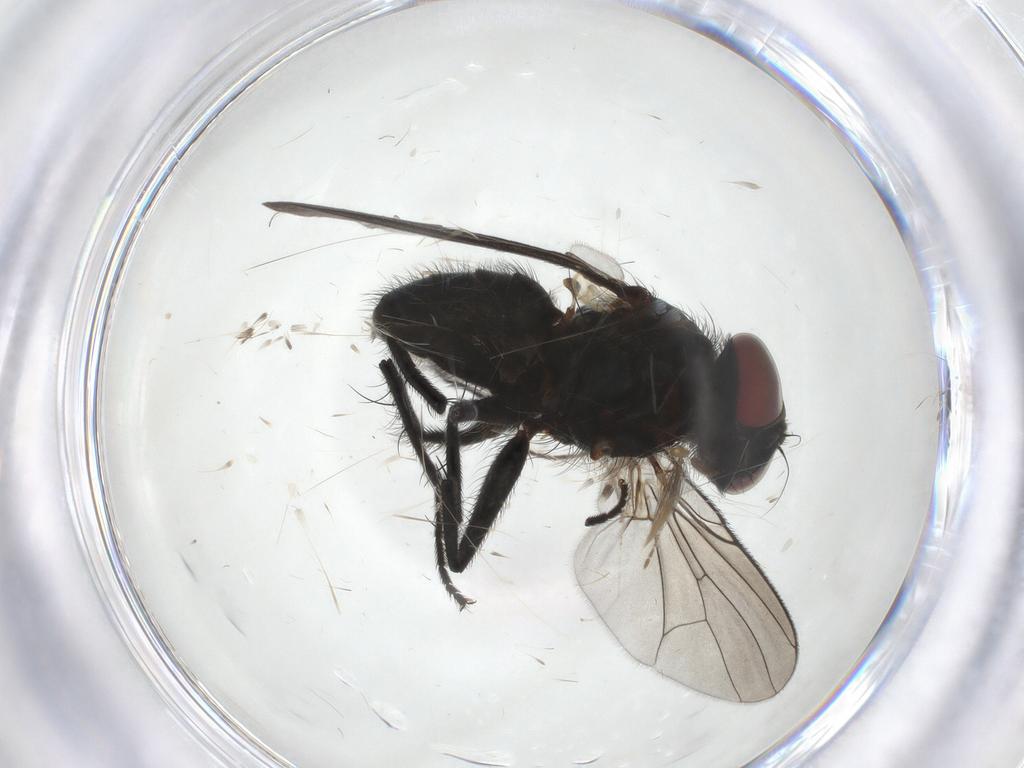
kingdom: Animalia
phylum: Arthropoda
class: Insecta
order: Diptera
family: Muscidae
